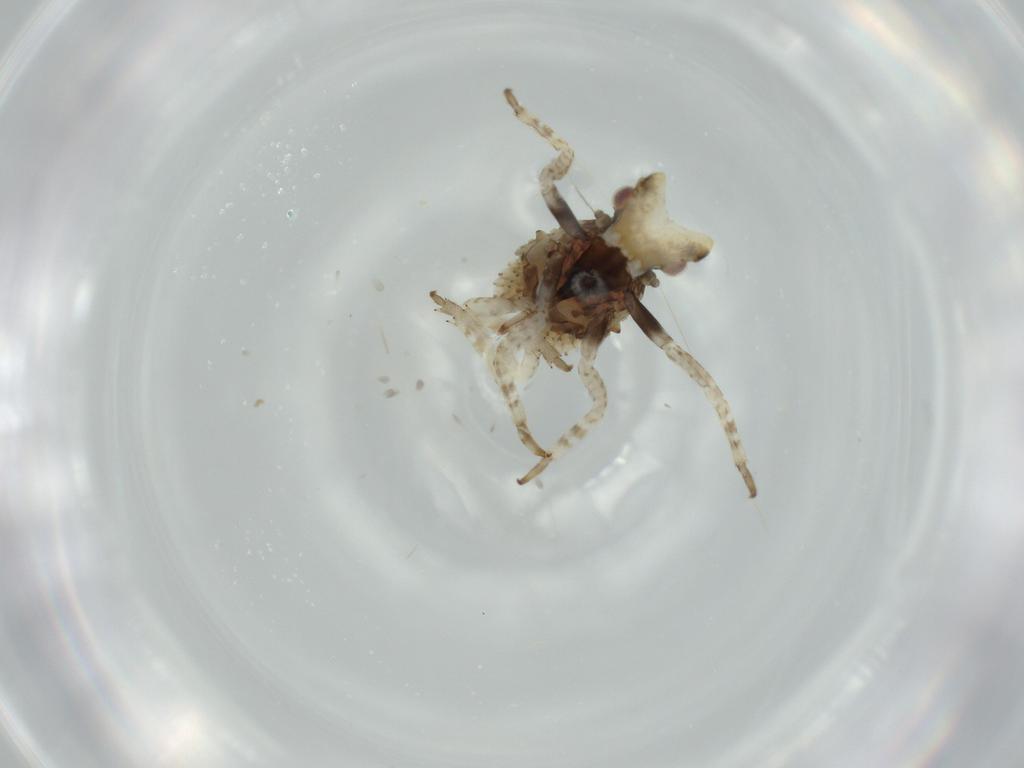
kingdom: Animalia
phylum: Arthropoda
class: Insecta
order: Hemiptera
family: Fulgoridae
